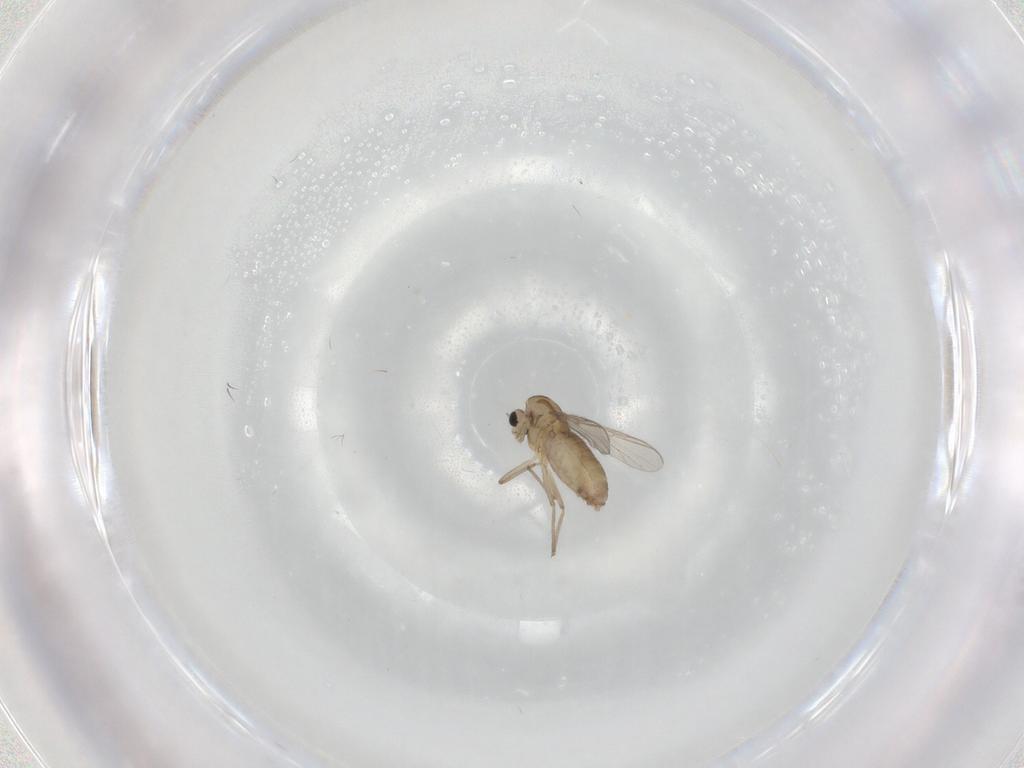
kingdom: Animalia
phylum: Arthropoda
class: Insecta
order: Diptera
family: Chironomidae
